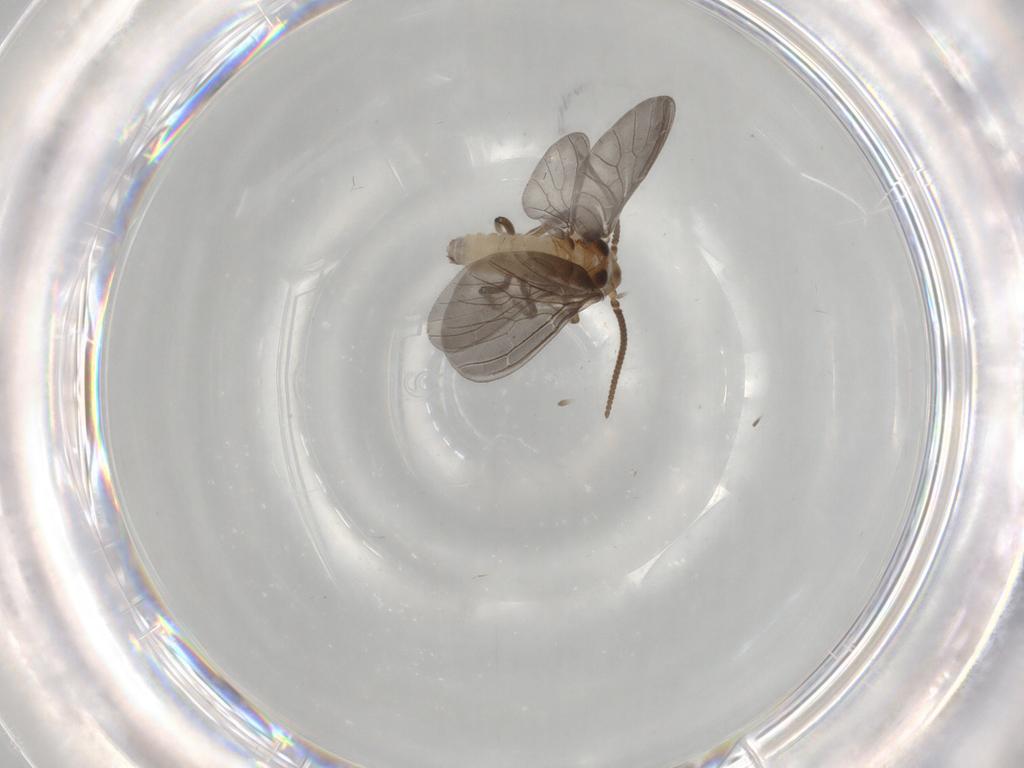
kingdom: Animalia
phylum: Arthropoda
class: Insecta
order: Neuroptera
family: Coniopterygidae
